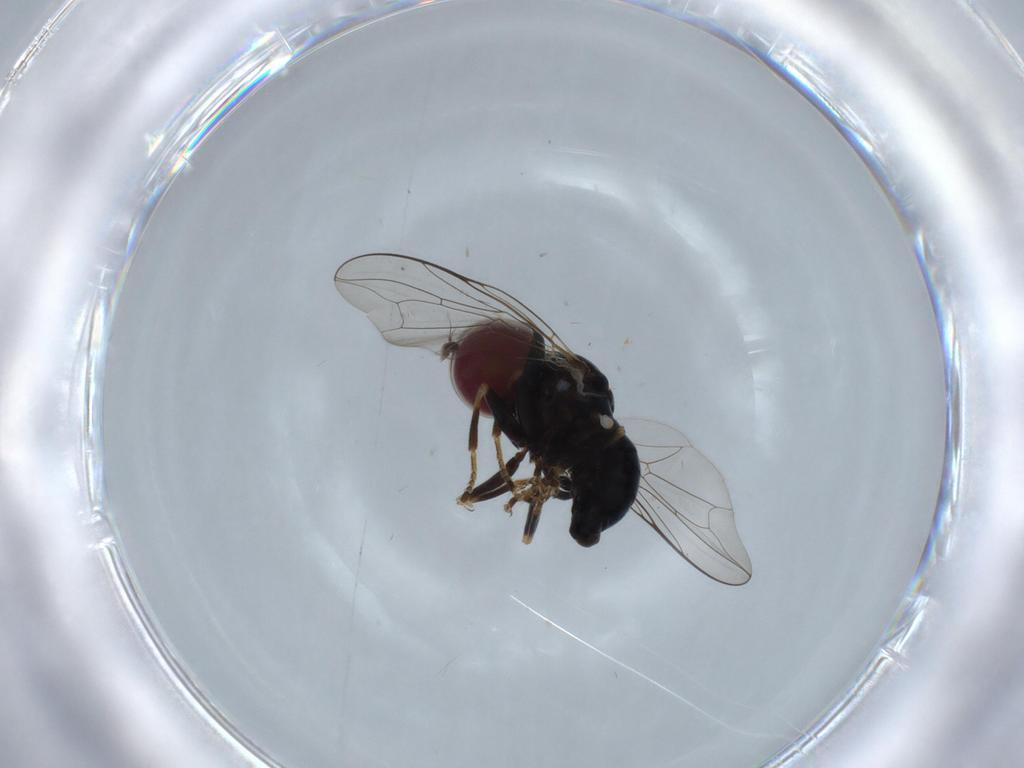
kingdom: Animalia
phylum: Arthropoda
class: Insecta
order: Diptera
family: Pipunculidae
